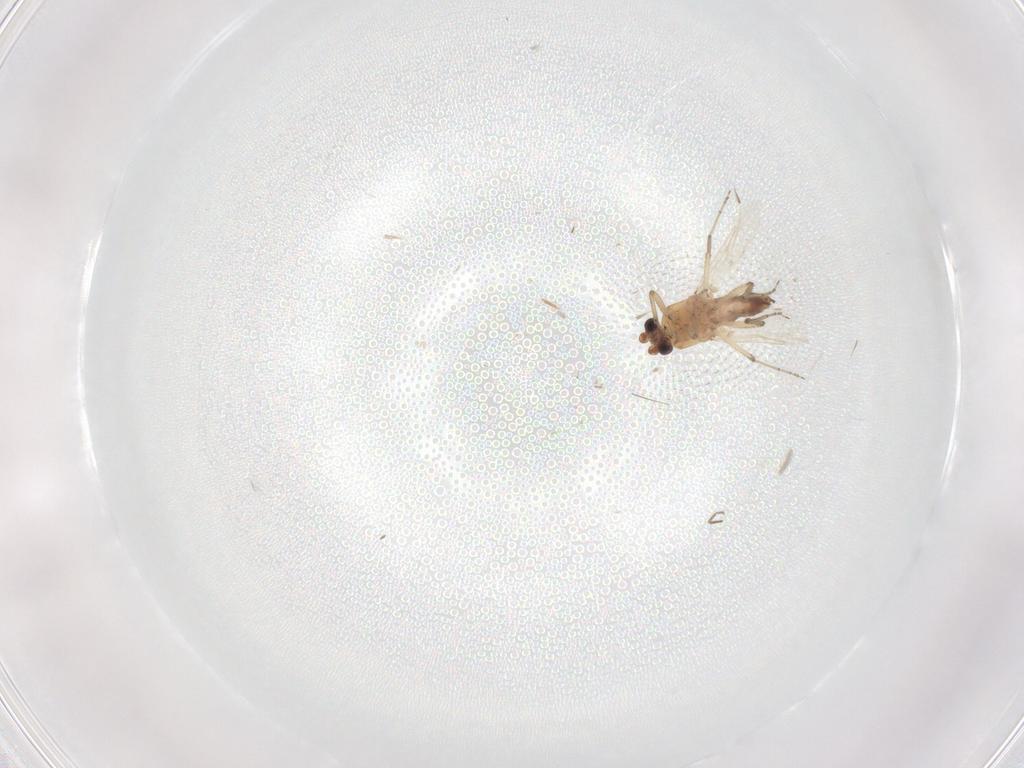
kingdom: Animalia
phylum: Arthropoda
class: Insecta
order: Diptera
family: Ceratopogonidae
